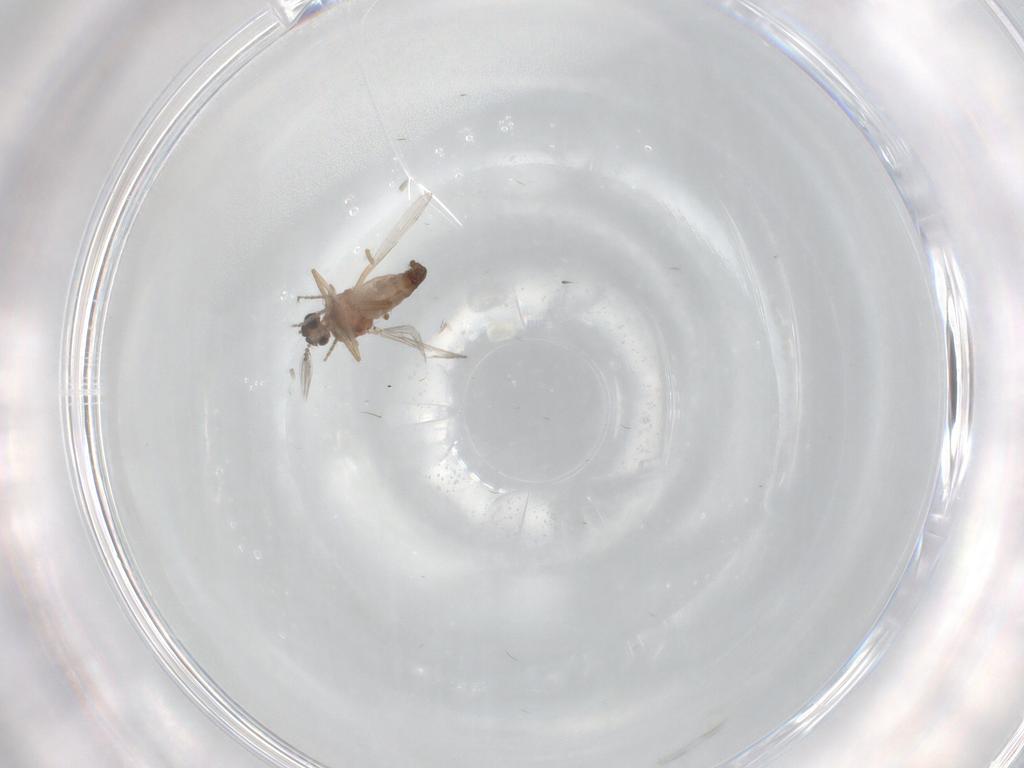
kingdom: Animalia
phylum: Arthropoda
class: Insecta
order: Diptera
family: Ceratopogonidae
